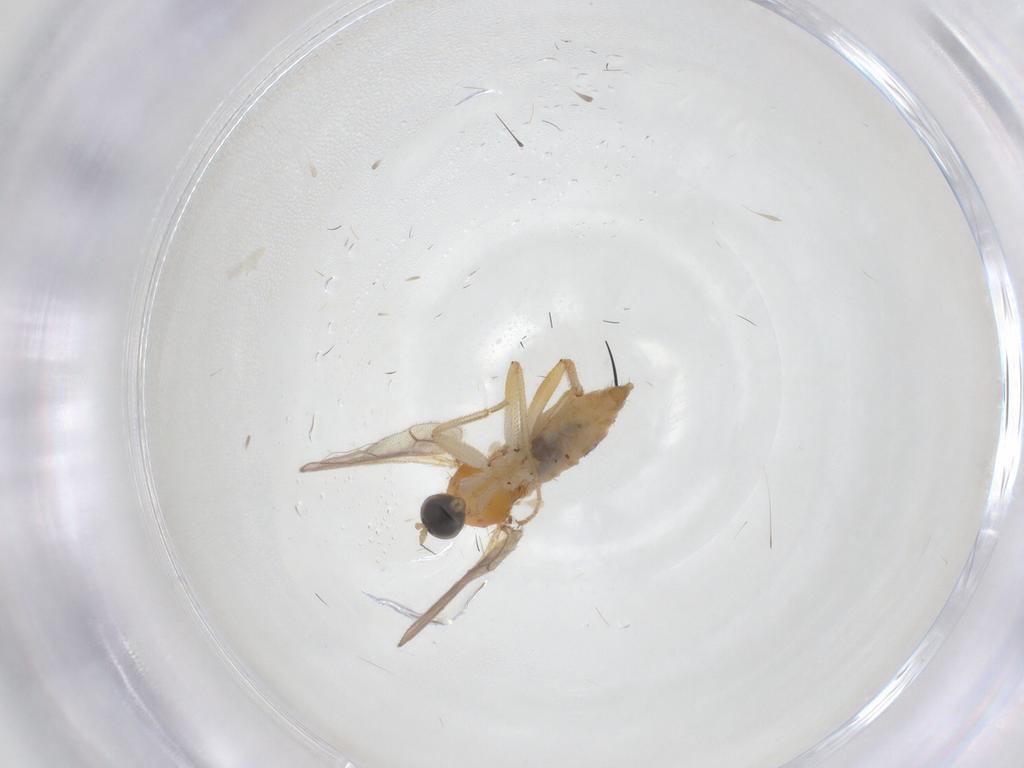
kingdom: Animalia
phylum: Arthropoda
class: Insecta
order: Diptera
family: Hybotidae
